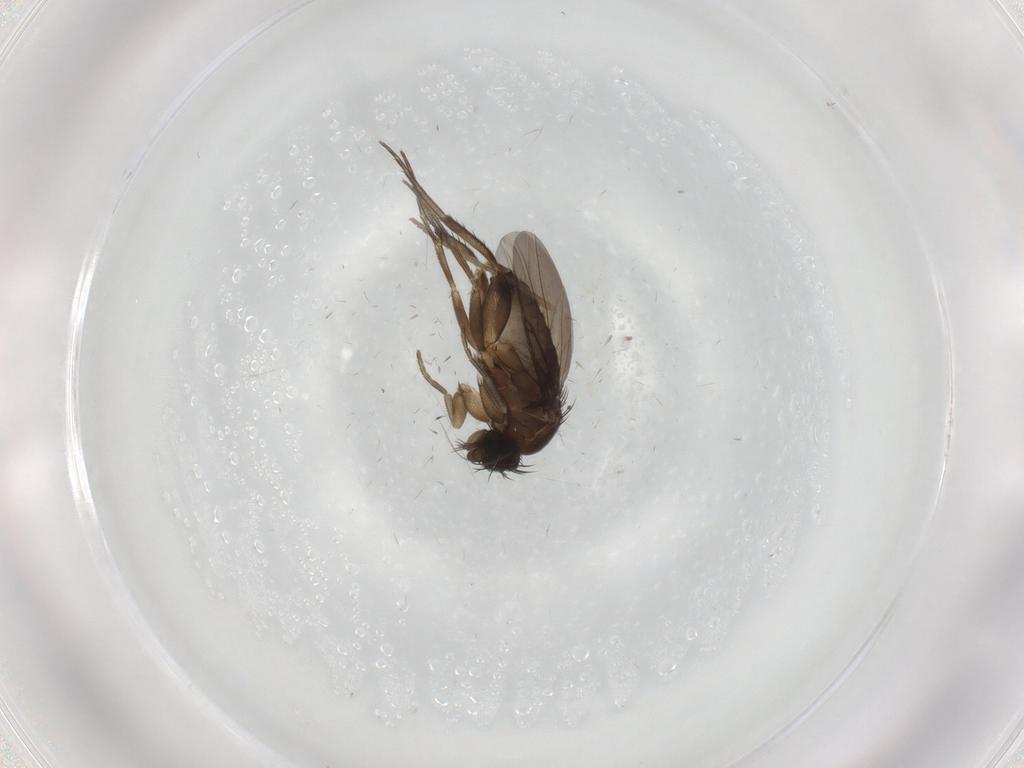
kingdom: Animalia
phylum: Arthropoda
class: Insecta
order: Diptera
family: Phoridae
